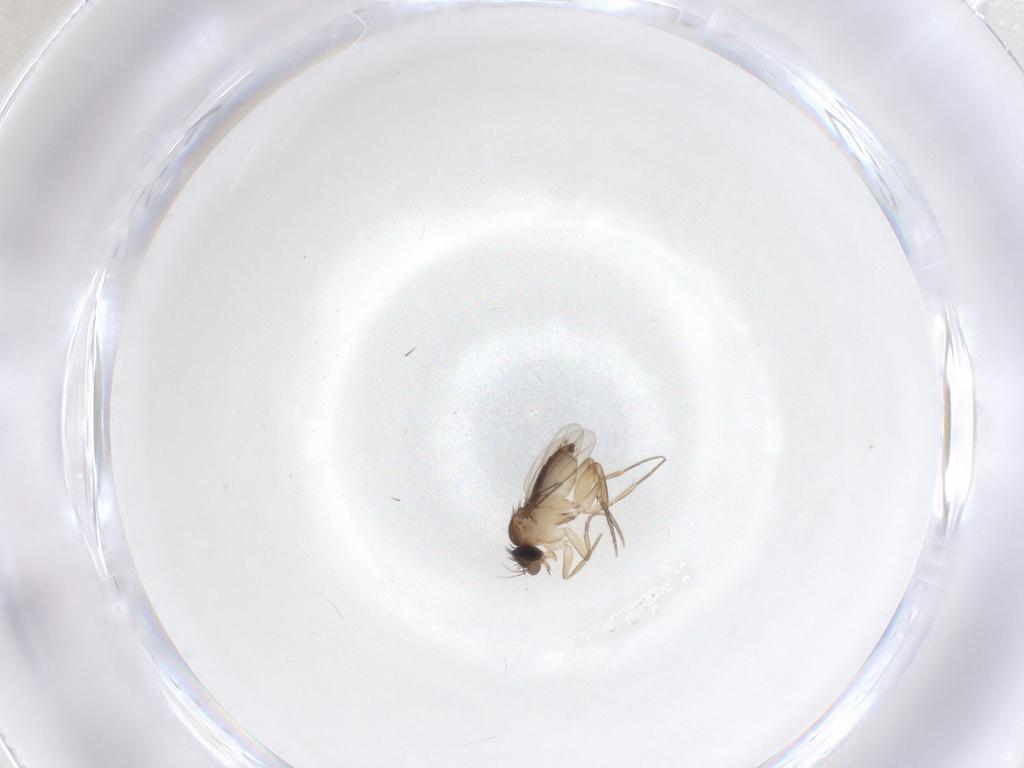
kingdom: Animalia
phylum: Arthropoda
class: Insecta
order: Diptera
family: Phoridae
